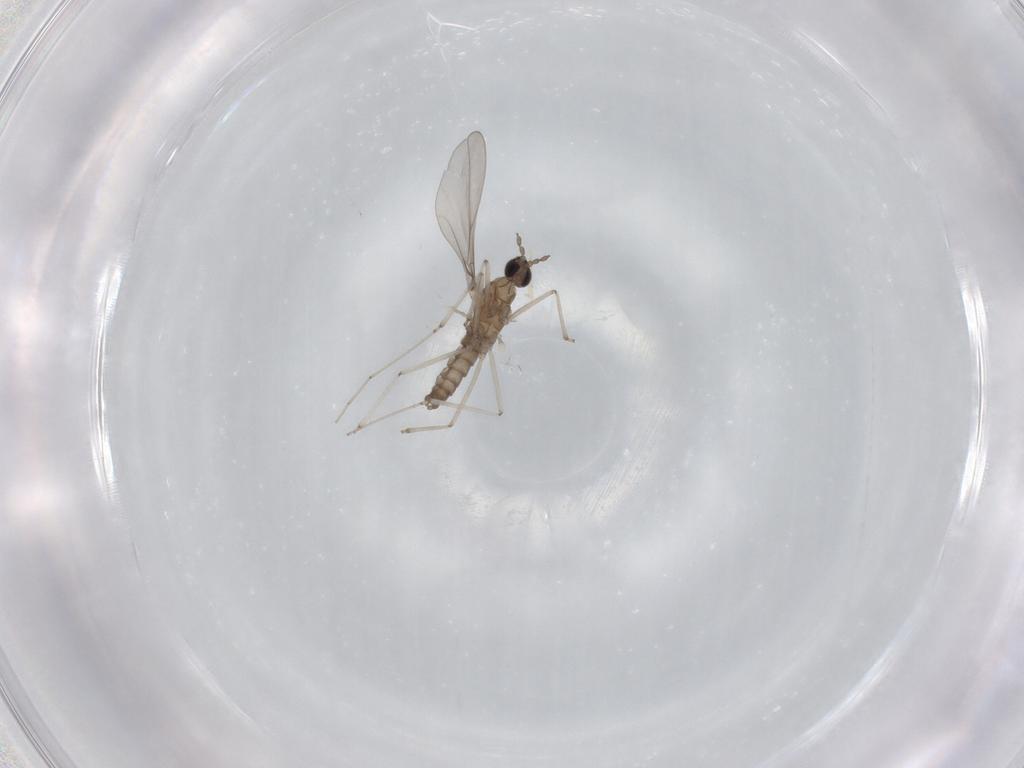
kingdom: Animalia
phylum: Arthropoda
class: Insecta
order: Diptera
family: Cecidomyiidae
